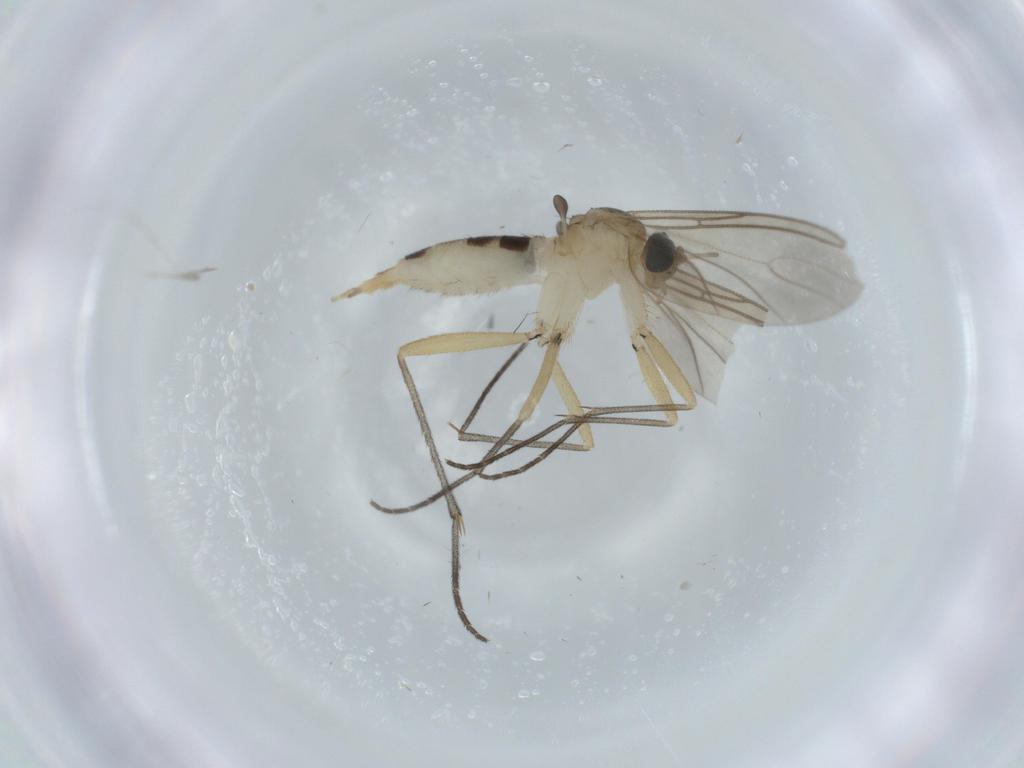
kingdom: Animalia
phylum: Arthropoda
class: Insecta
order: Diptera
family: Sciaridae
